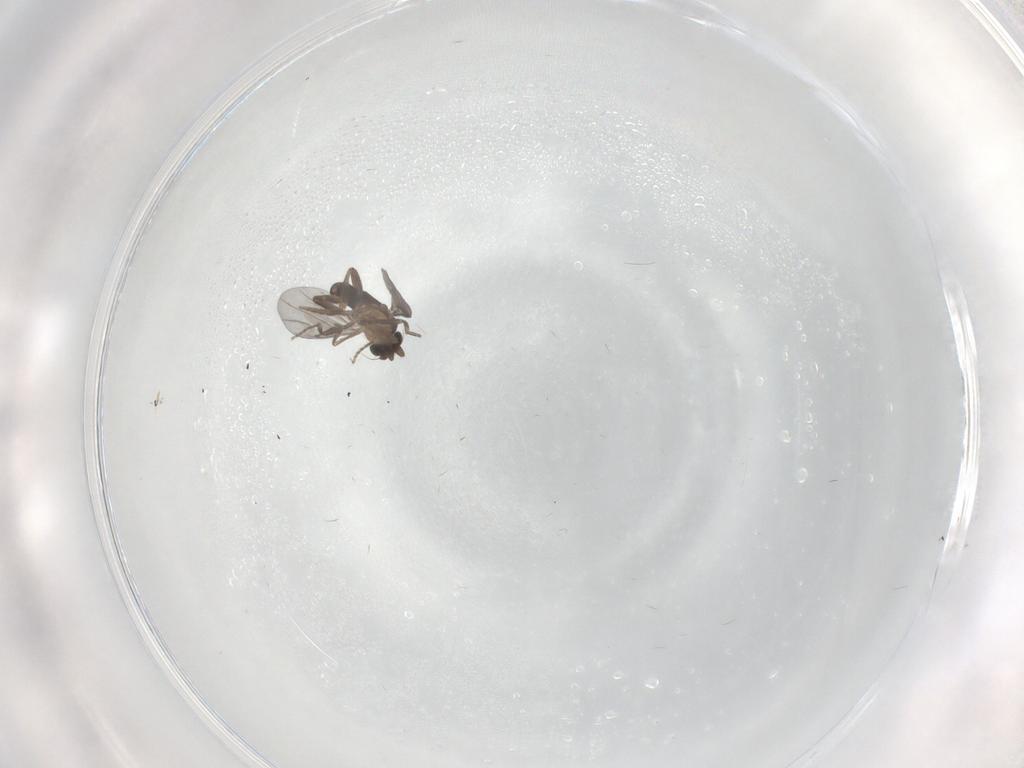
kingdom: Animalia
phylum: Arthropoda
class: Insecta
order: Diptera
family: Chironomidae
